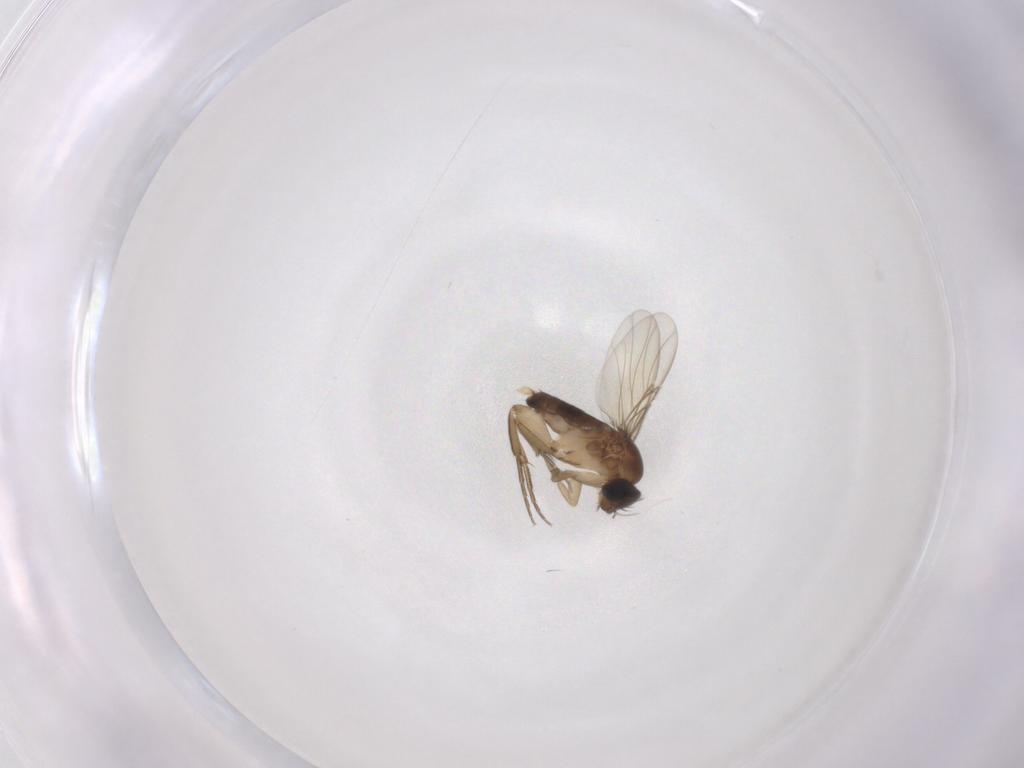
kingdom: Animalia
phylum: Arthropoda
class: Insecta
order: Diptera
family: Phoridae
